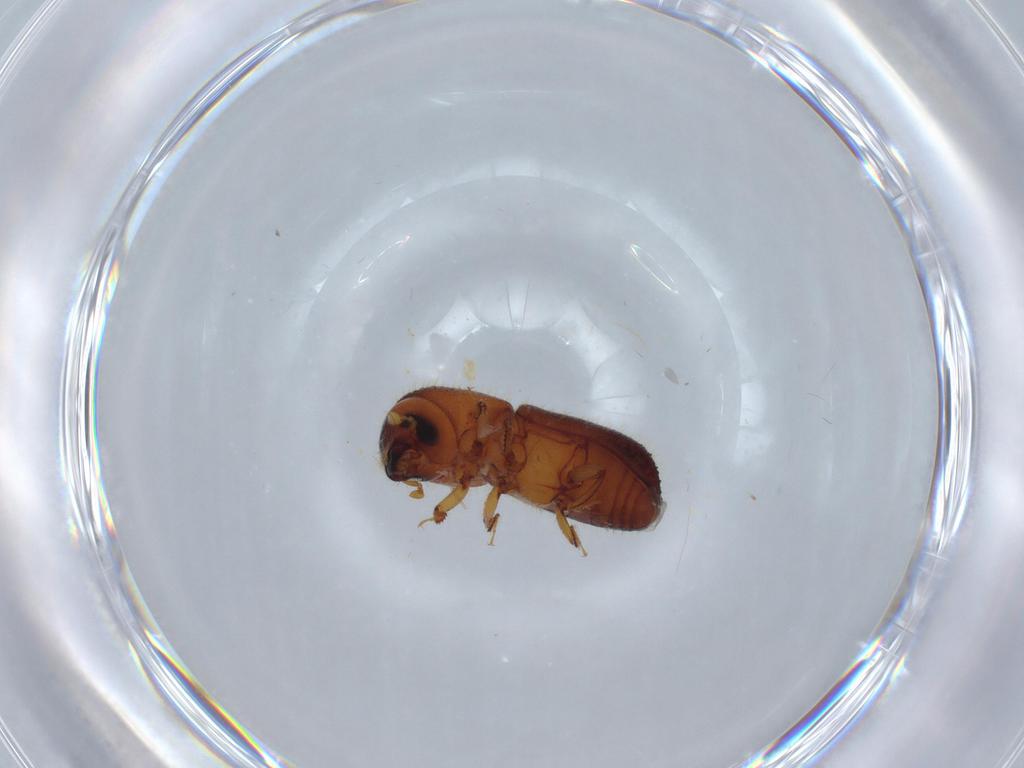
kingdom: Animalia
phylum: Arthropoda
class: Insecta
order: Coleoptera
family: Curculionidae
